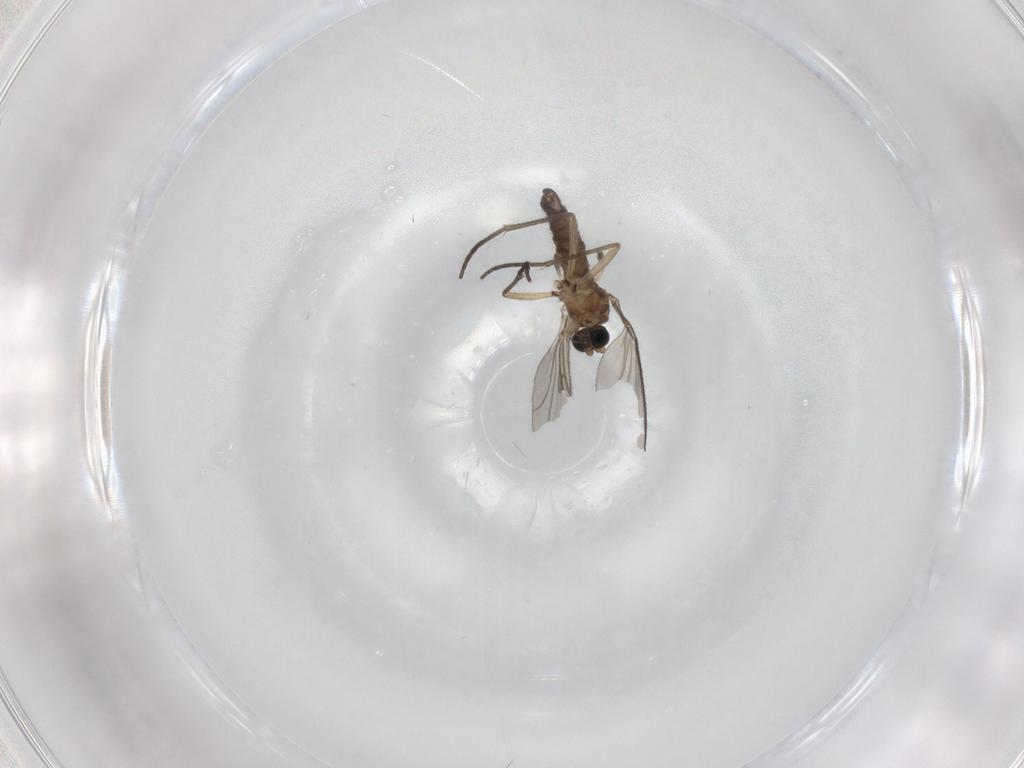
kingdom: Animalia
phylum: Arthropoda
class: Insecta
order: Diptera
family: Sciaridae
